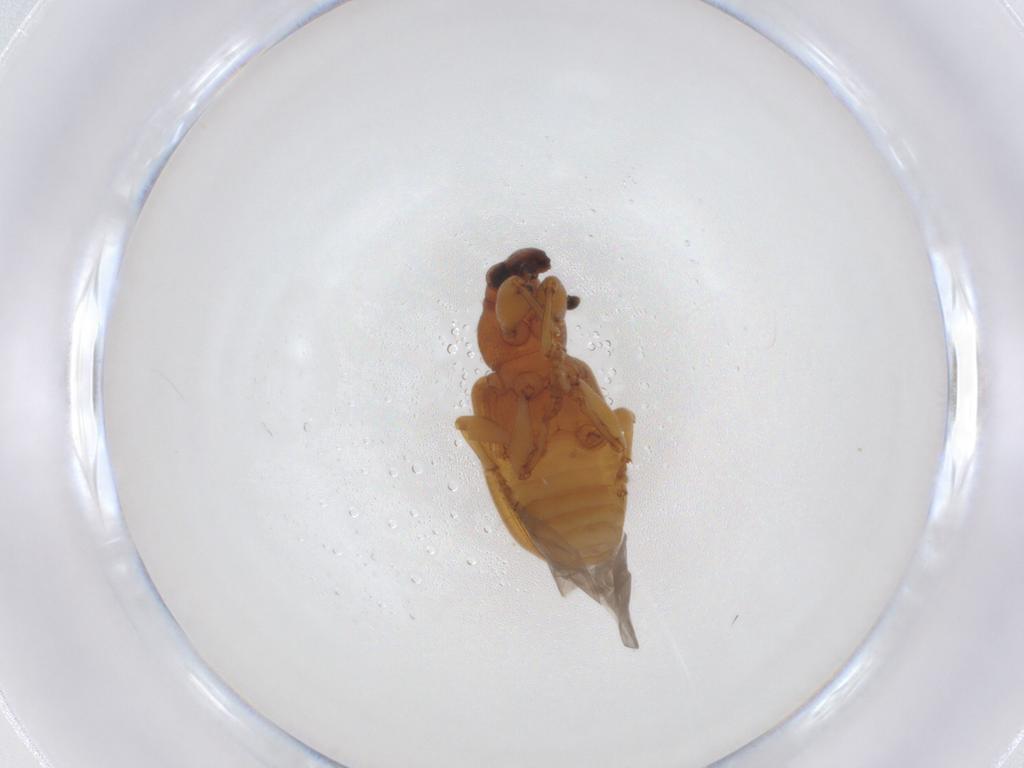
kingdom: Animalia
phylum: Arthropoda
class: Insecta
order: Coleoptera
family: Curculionidae
